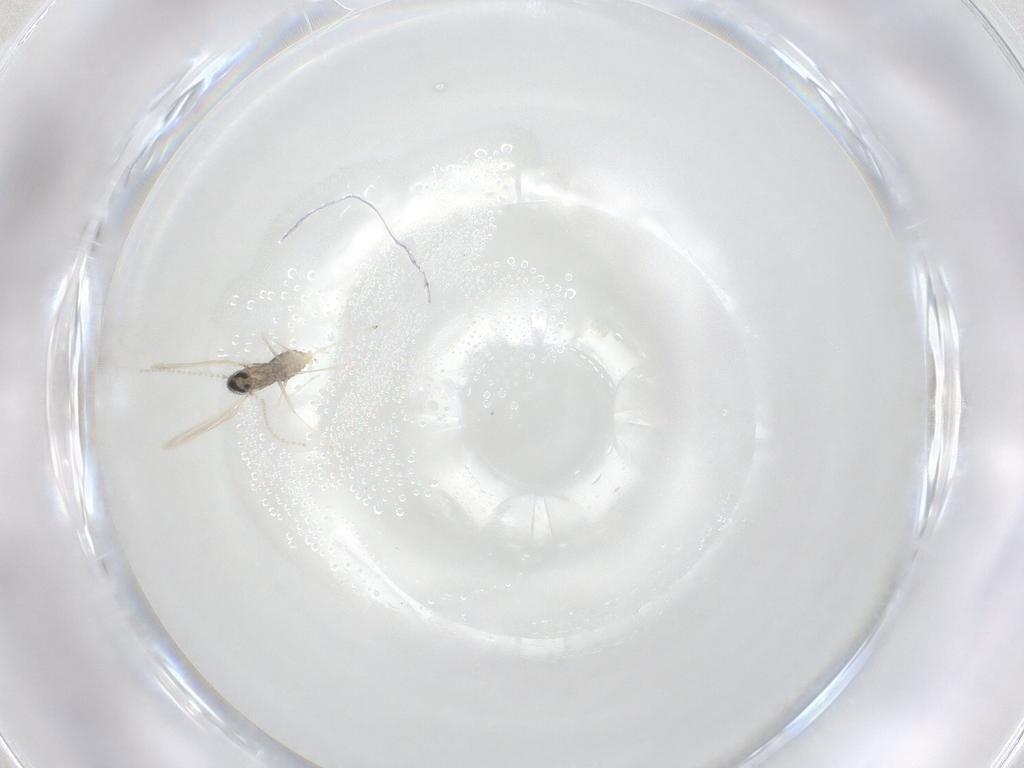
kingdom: Animalia
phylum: Arthropoda
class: Insecta
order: Diptera
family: Cecidomyiidae
